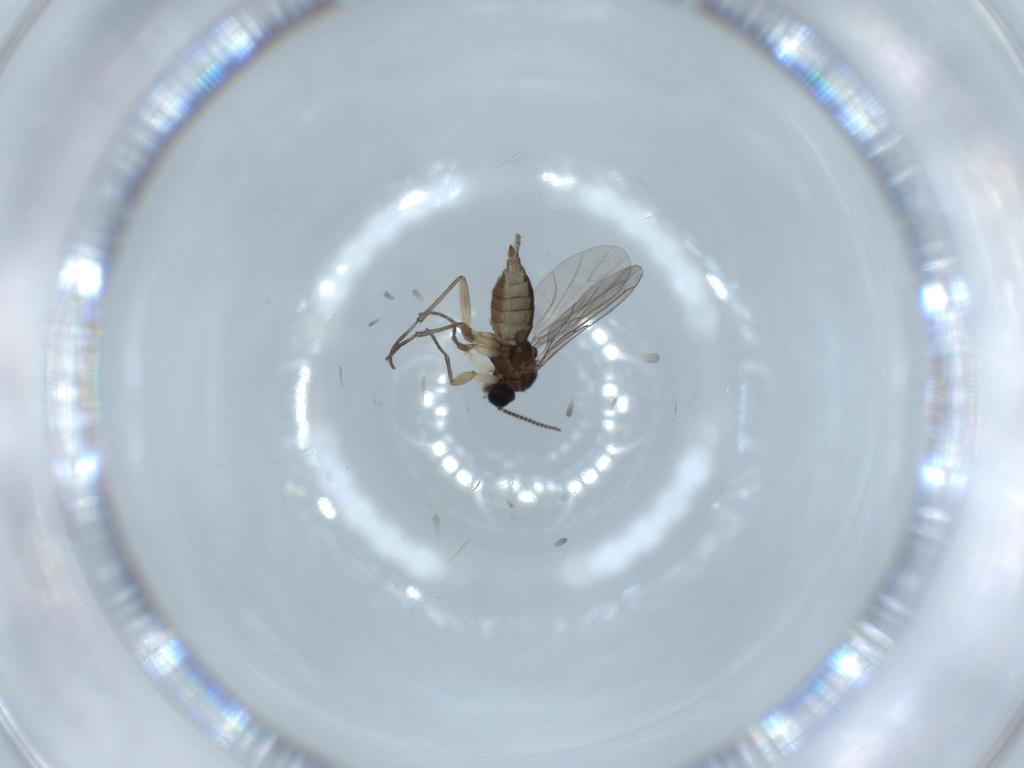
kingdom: Animalia
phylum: Arthropoda
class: Insecta
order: Diptera
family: Sciaridae
